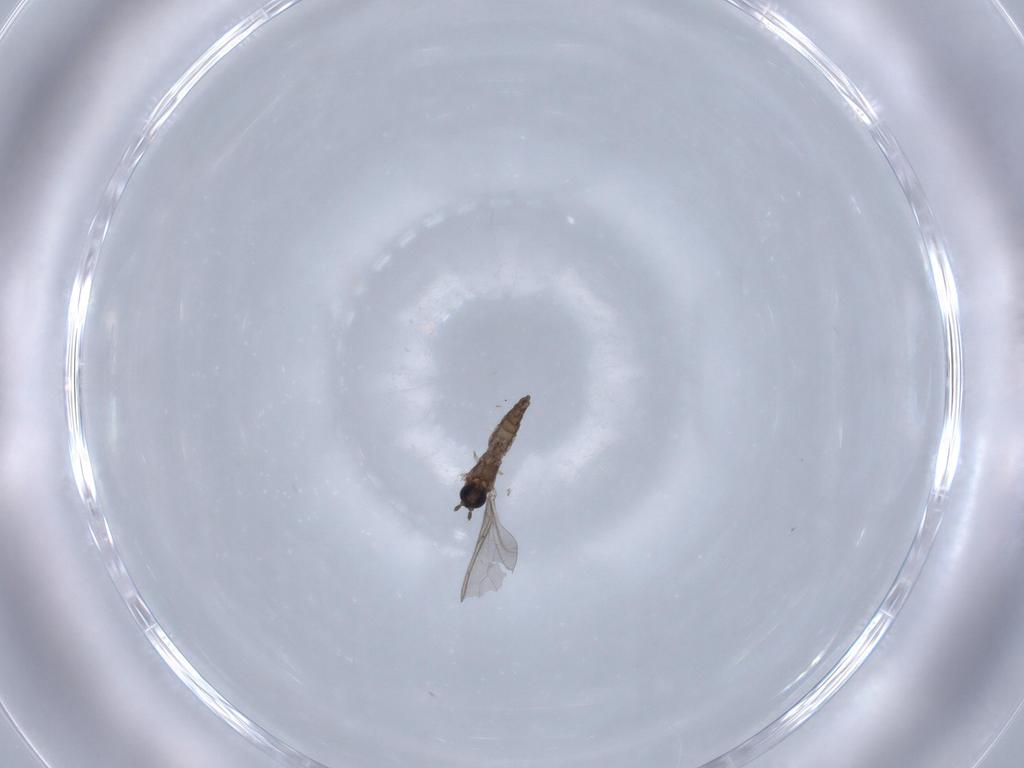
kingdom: Animalia
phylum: Arthropoda
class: Insecta
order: Diptera
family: Sciaridae
